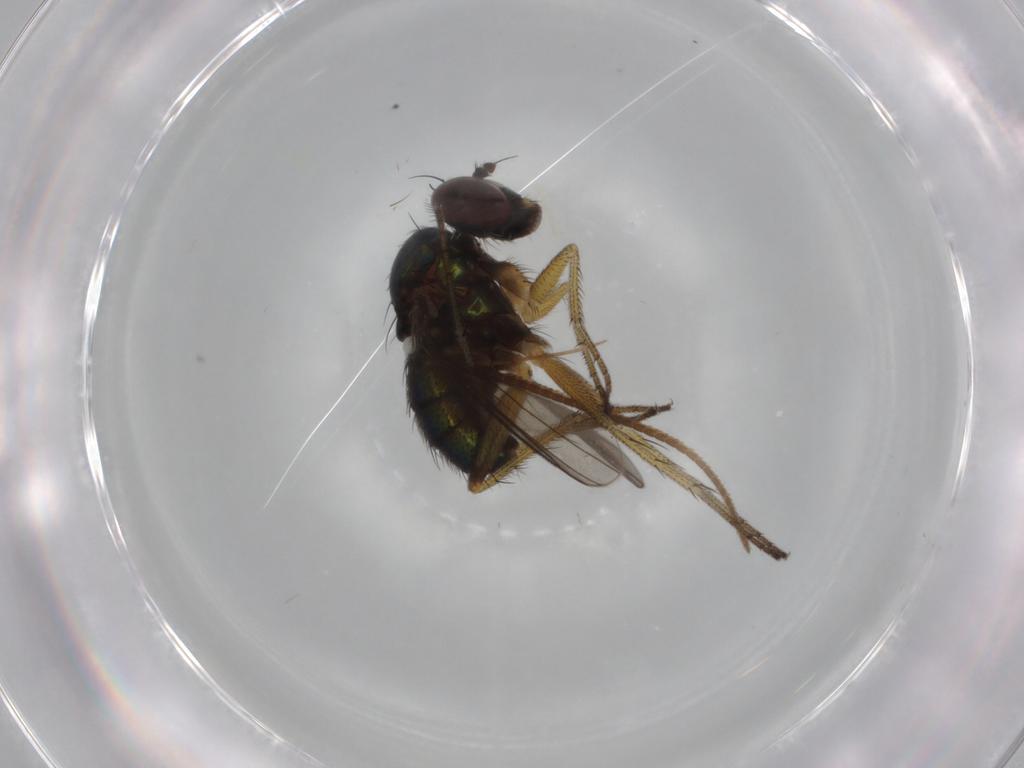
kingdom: Animalia
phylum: Arthropoda
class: Insecta
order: Diptera
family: Dolichopodidae
